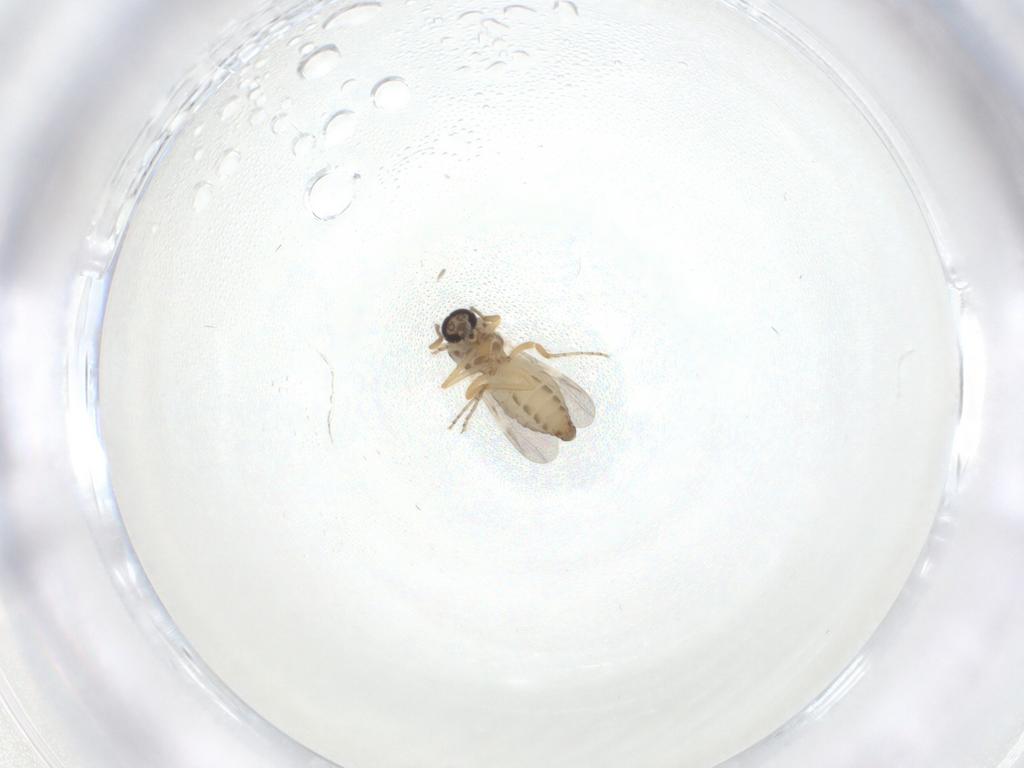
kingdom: Animalia
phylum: Arthropoda
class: Insecta
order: Diptera
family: Ceratopogonidae
